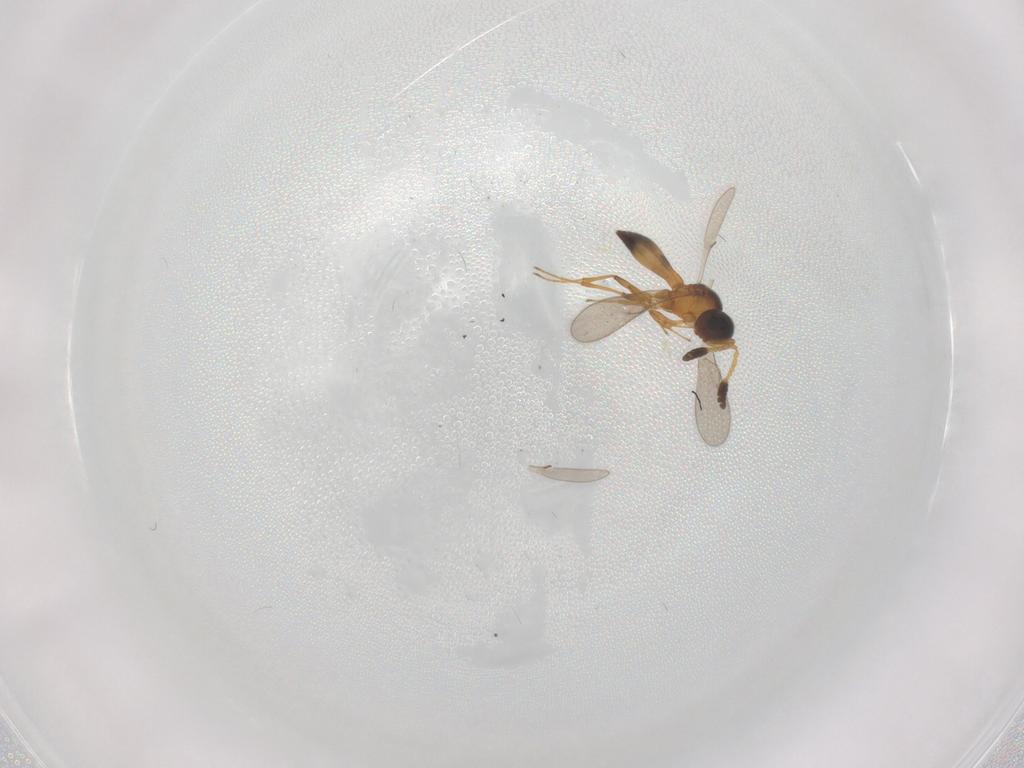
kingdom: Animalia
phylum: Arthropoda
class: Insecta
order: Hymenoptera
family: Scelionidae
